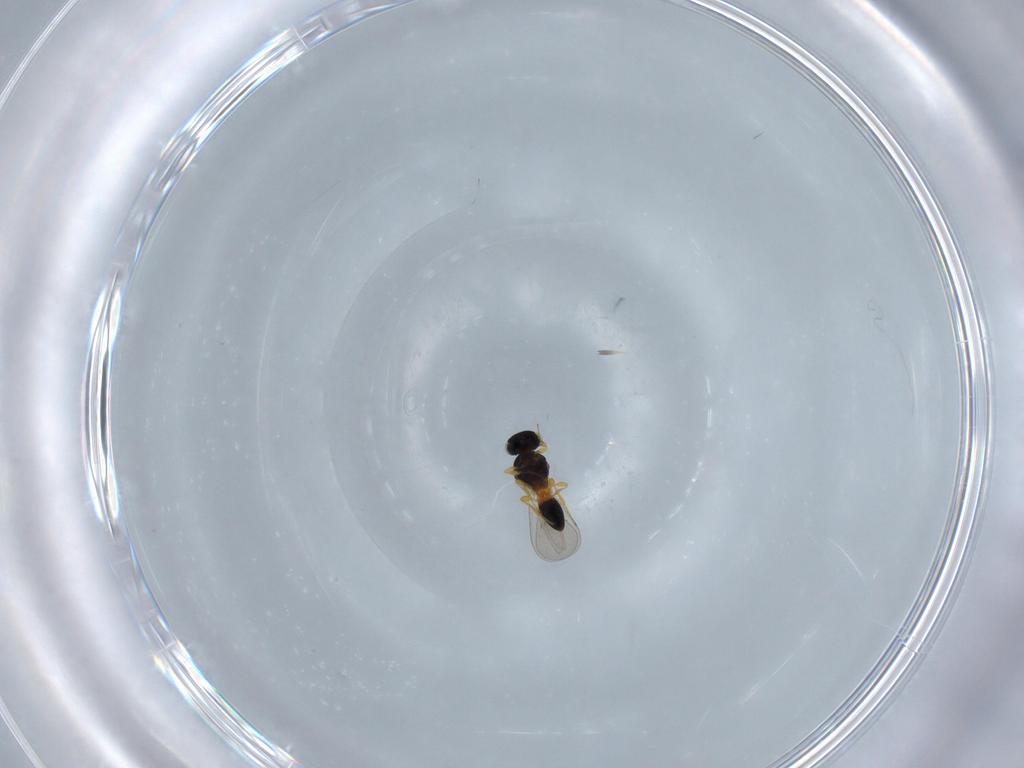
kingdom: Animalia
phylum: Arthropoda
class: Insecta
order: Hymenoptera
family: Platygastridae
